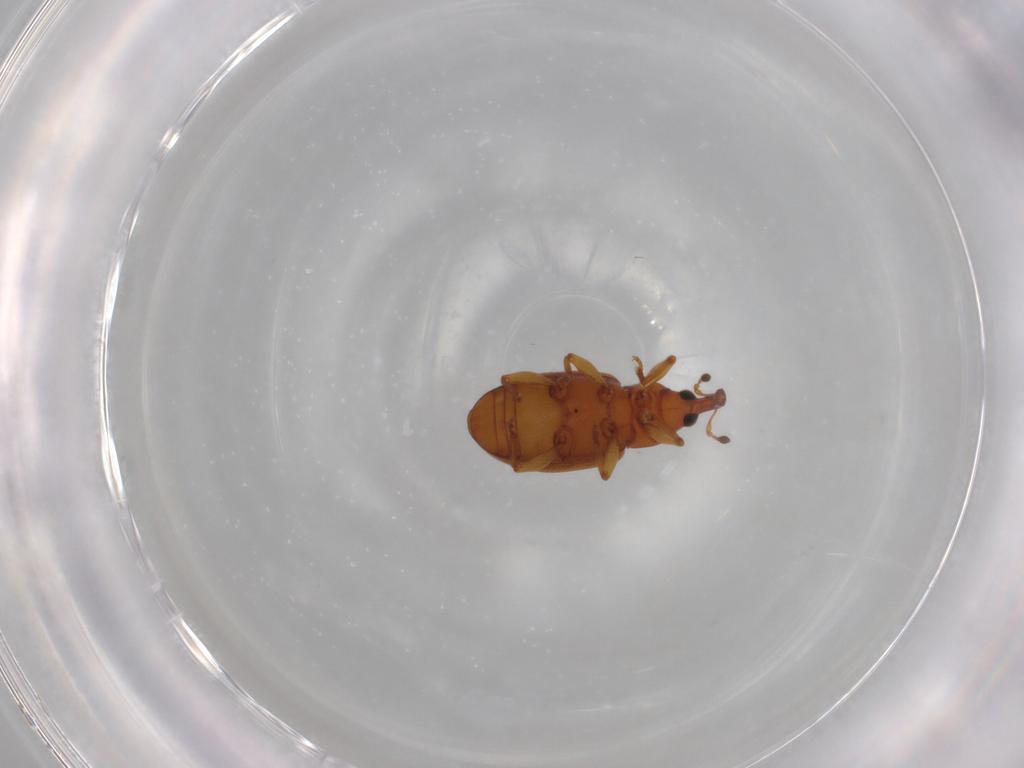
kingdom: Animalia
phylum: Arthropoda
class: Insecta
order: Coleoptera
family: Curculionidae
